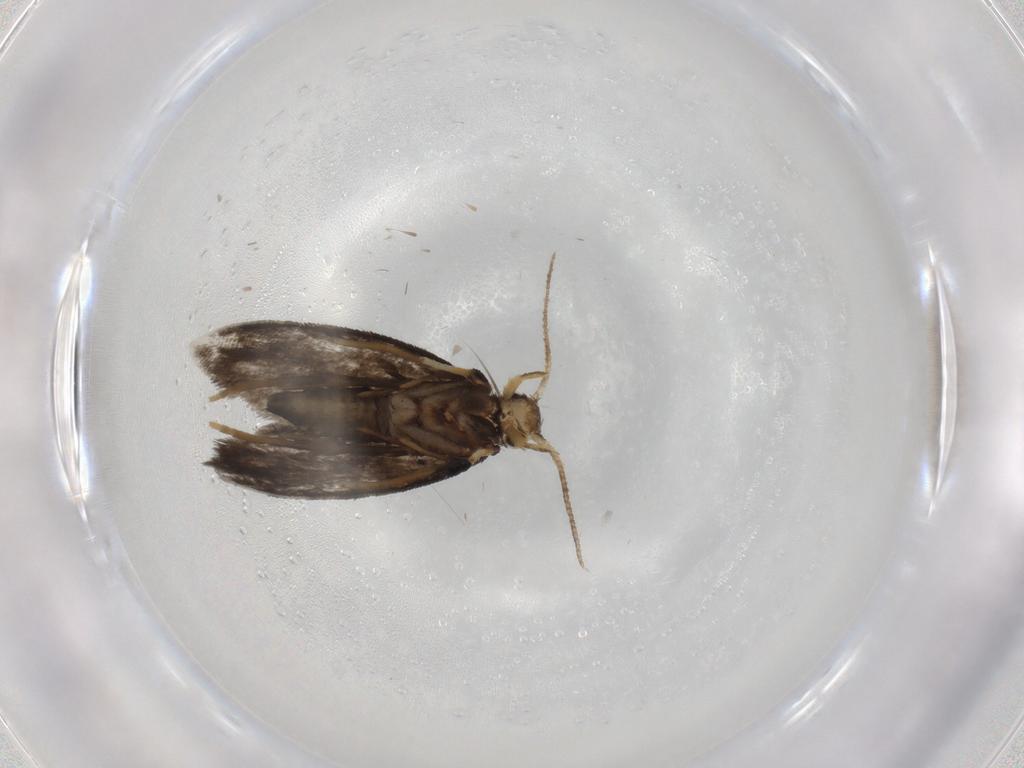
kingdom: Animalia
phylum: Arthropoda
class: Insecta
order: Lepidoptera
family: Psychidae
